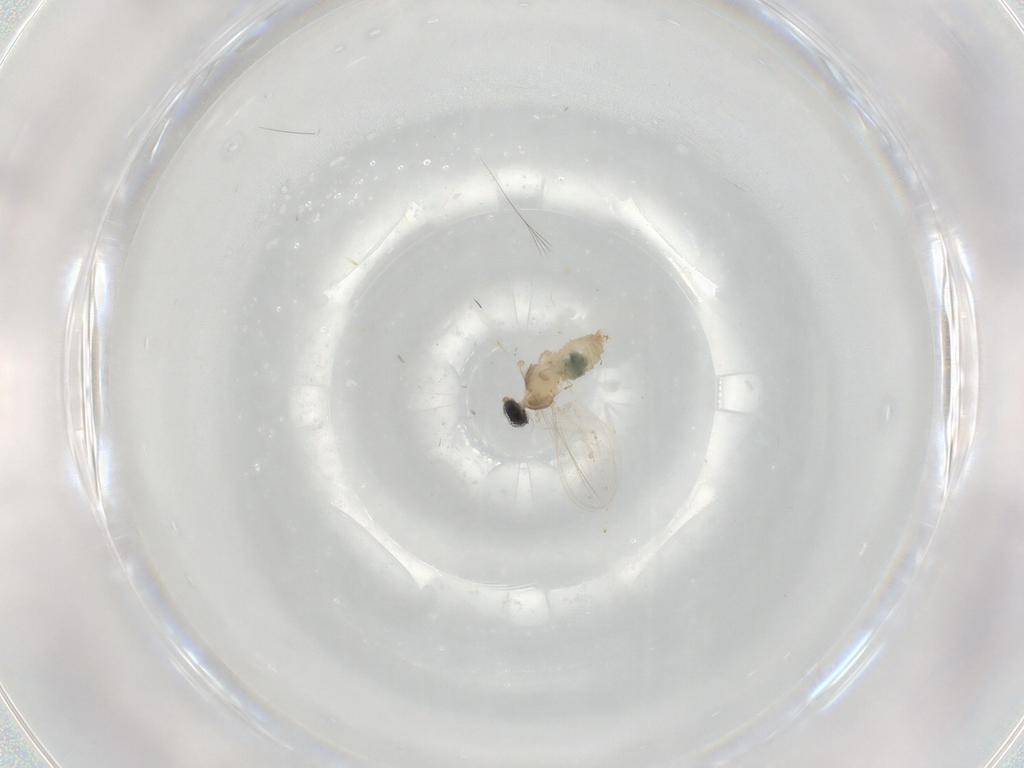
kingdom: Animalia
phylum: Arthropoda
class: Insecta
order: Diptera
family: Cecidomyiidae
